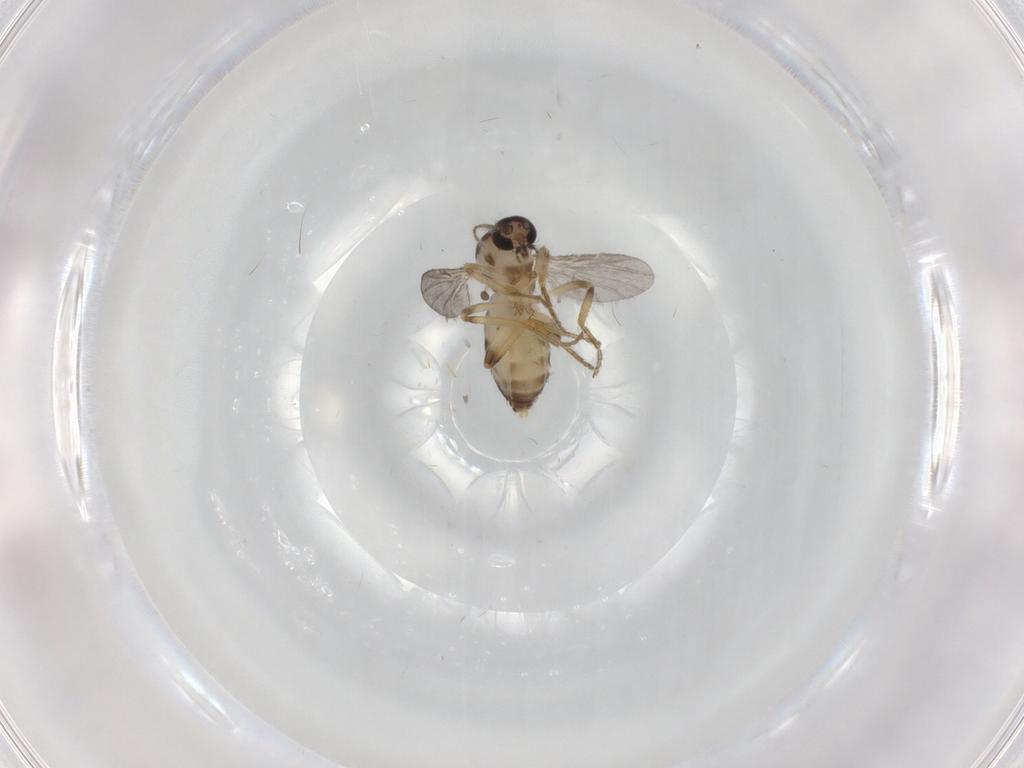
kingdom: Animalia
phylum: Arthropoda
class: Insecta
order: Diptera
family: Ceratopogonidae
